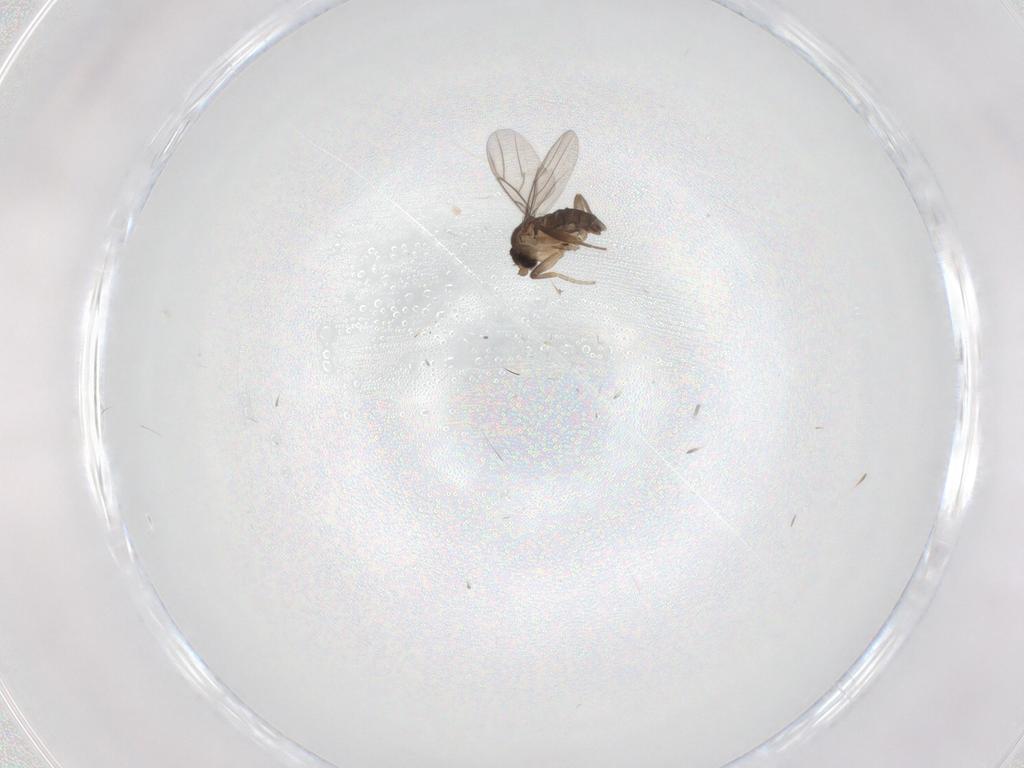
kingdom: Animalia
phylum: Arthropoda
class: Insecta
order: Diptera
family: Phoridae
